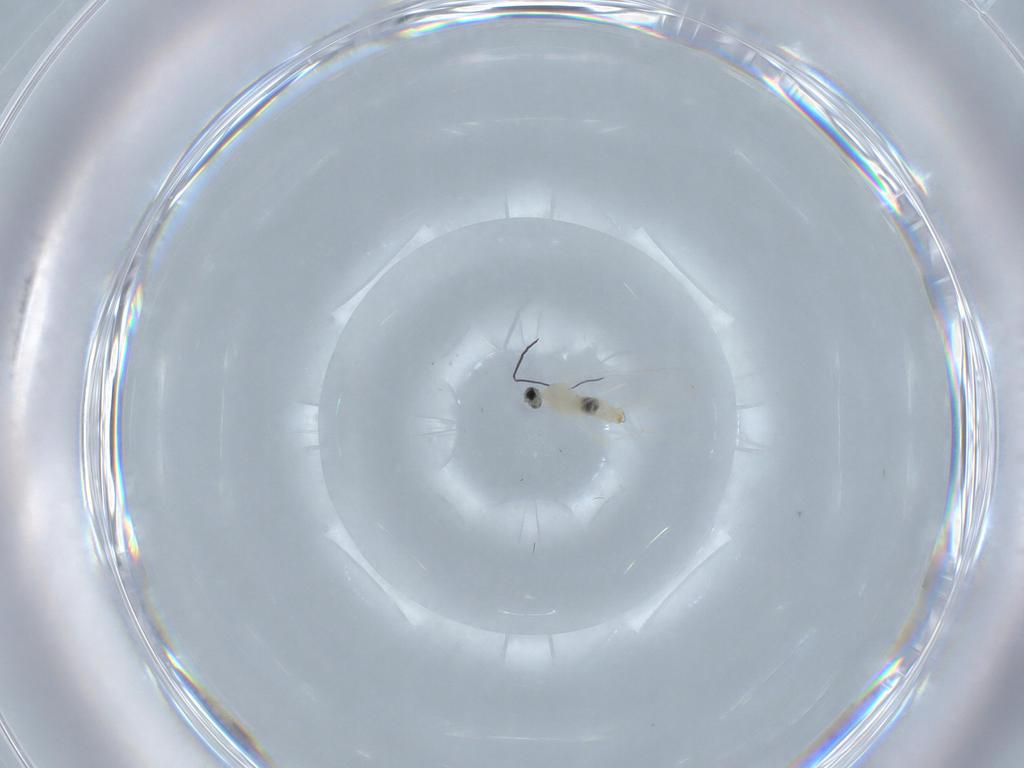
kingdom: Animalia
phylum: Arthropoda
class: Insecta
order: Diptera
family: Cecidomyiidae
